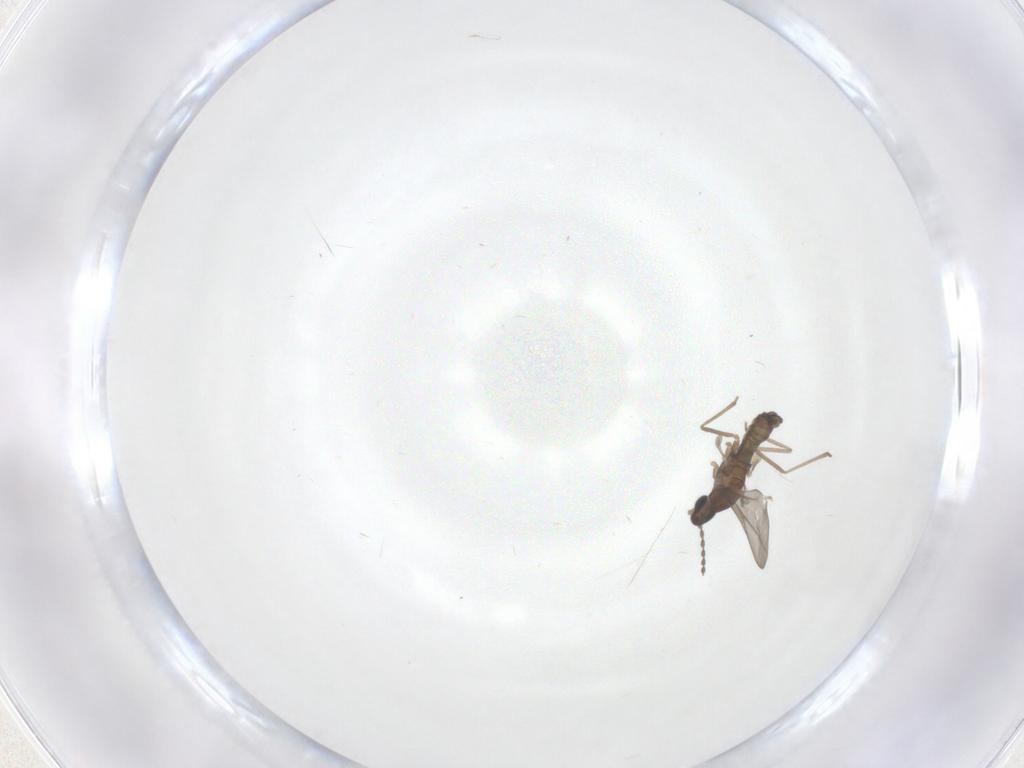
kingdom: Animalia
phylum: Arthropoda
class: Insecta
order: Diptera
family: Cecidomyiidae
